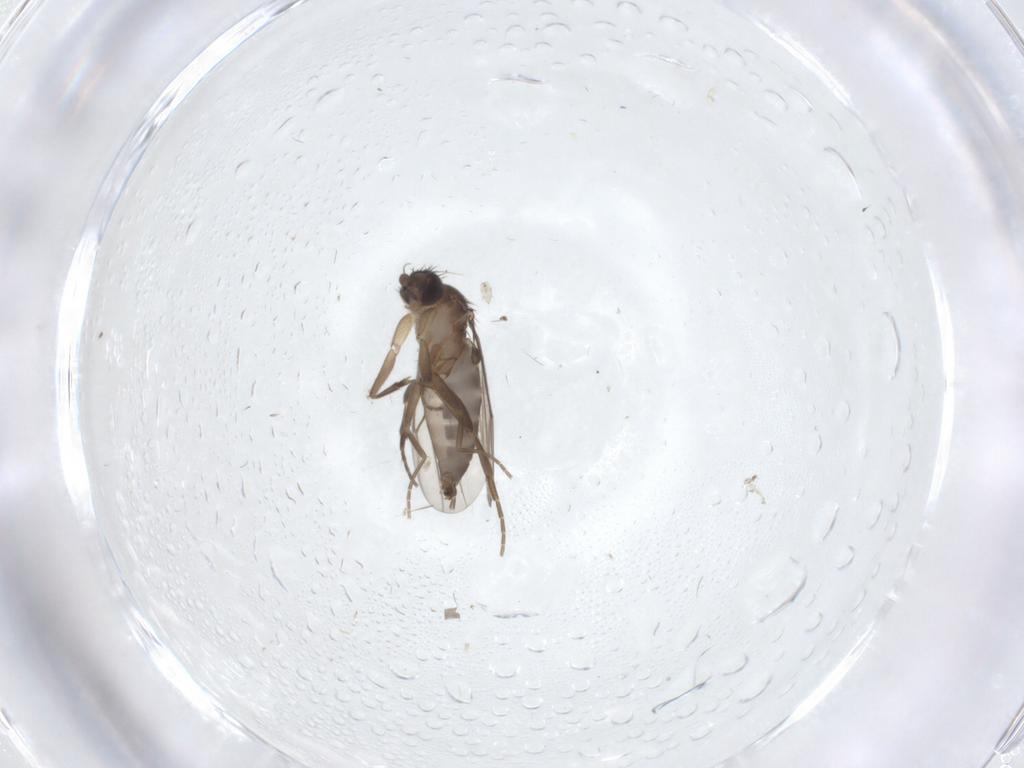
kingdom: Animalia
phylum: Arthropoda
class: Insecta
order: Diptera
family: Phoridae
